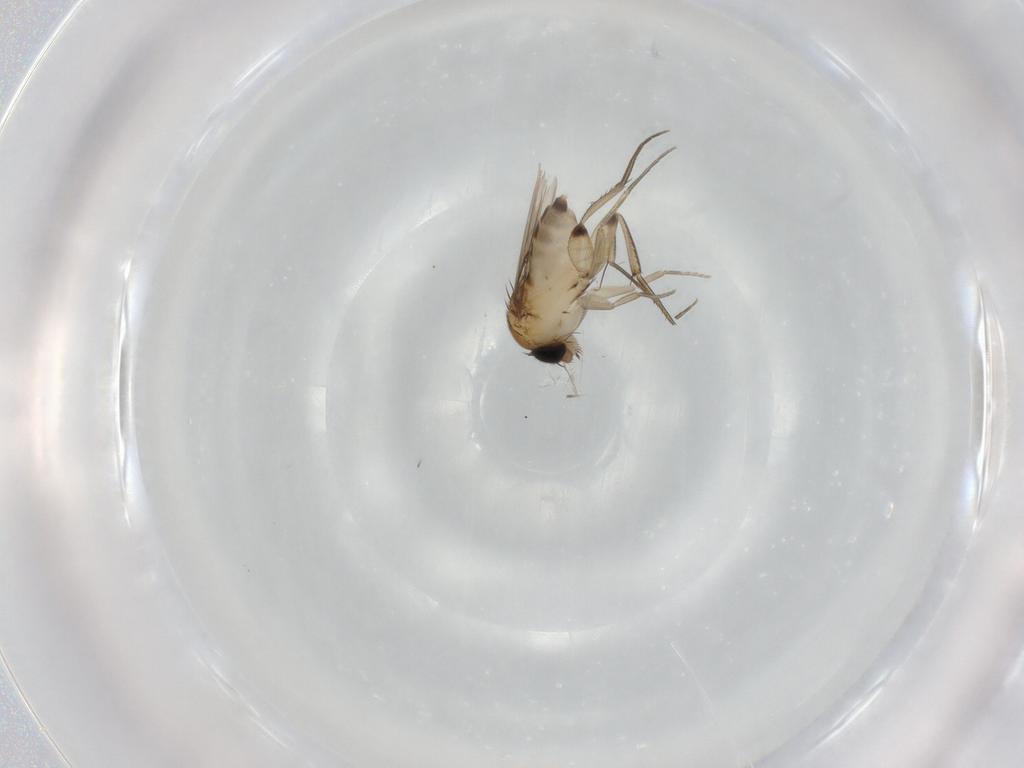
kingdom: Animalia
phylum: Arthropoda
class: Insecta
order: Diptera
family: Phoridae
